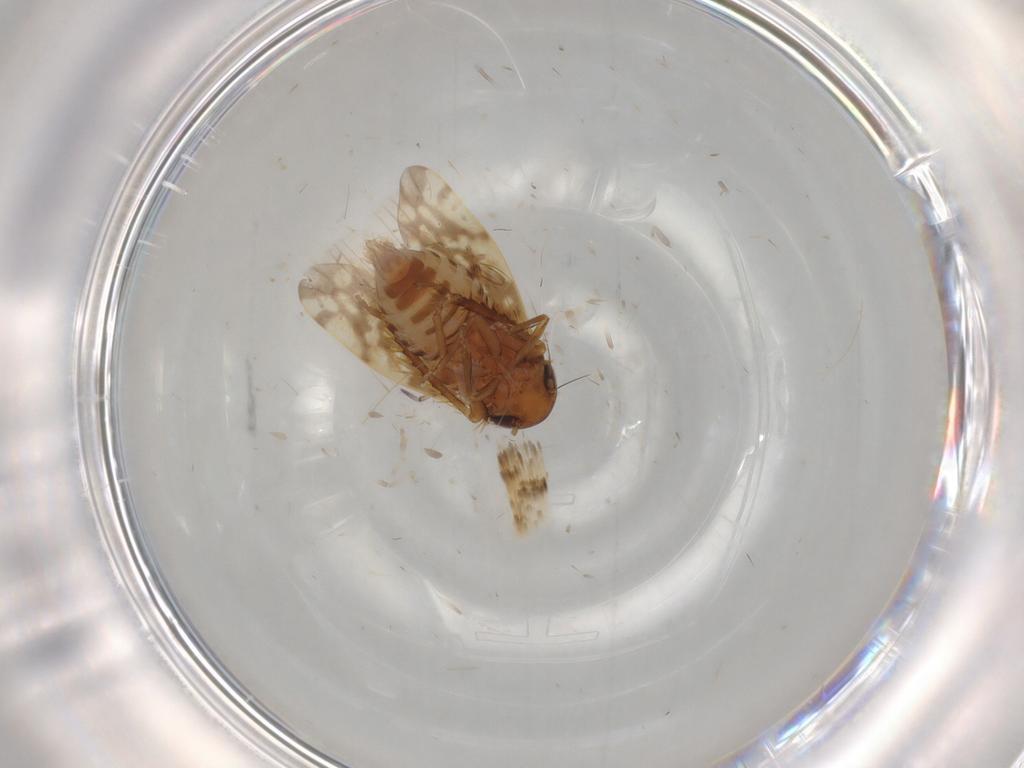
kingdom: Animalia
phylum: Arthropoda
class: Insecta
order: Hemiptera
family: Cicadellidae
